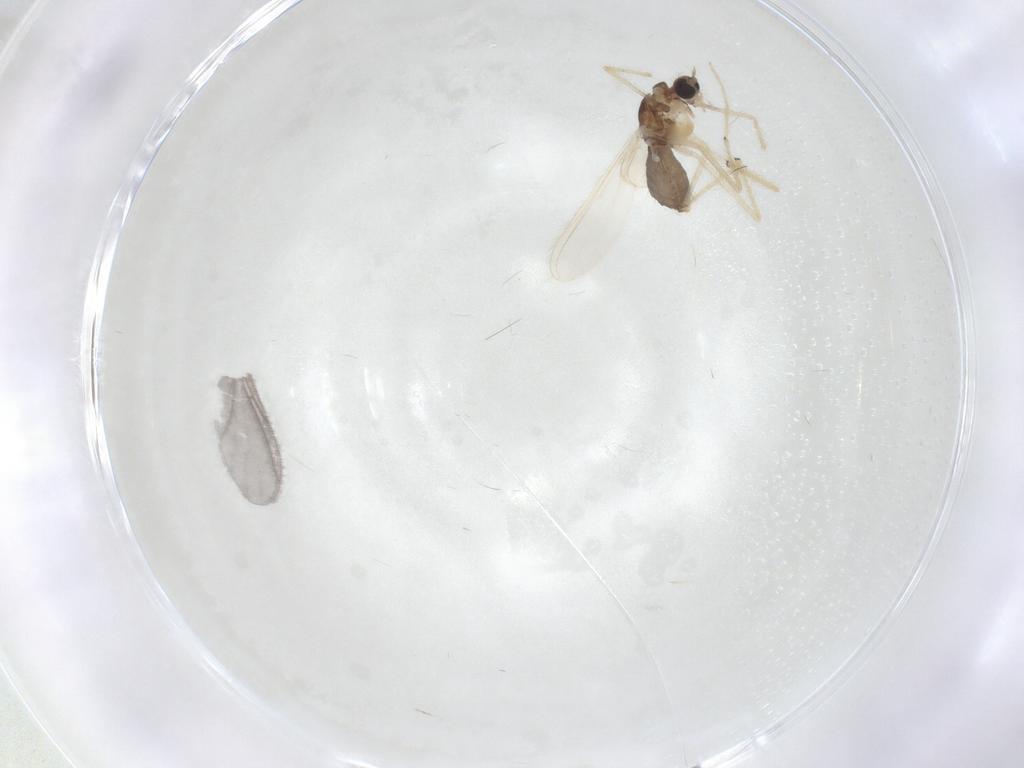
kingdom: Animalia
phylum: Arthropoda
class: Insecta
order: Diptera
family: Chironomidae
